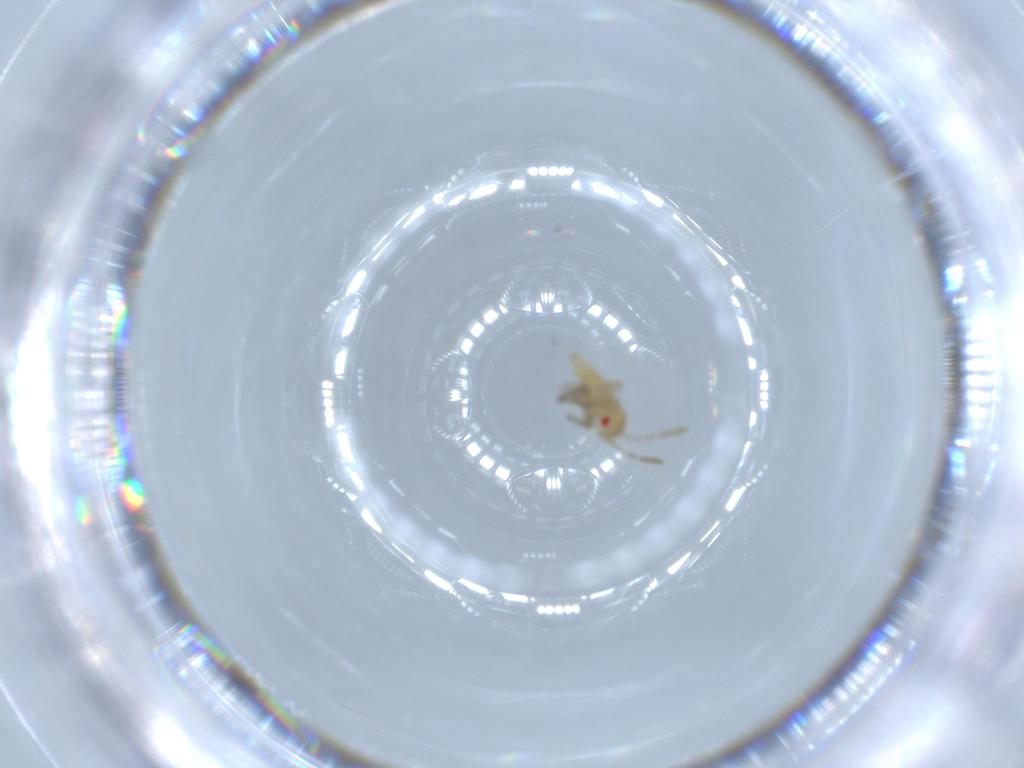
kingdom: Animalia
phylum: Arthropoda
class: Insecta
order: Hemiptera
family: Miridae
